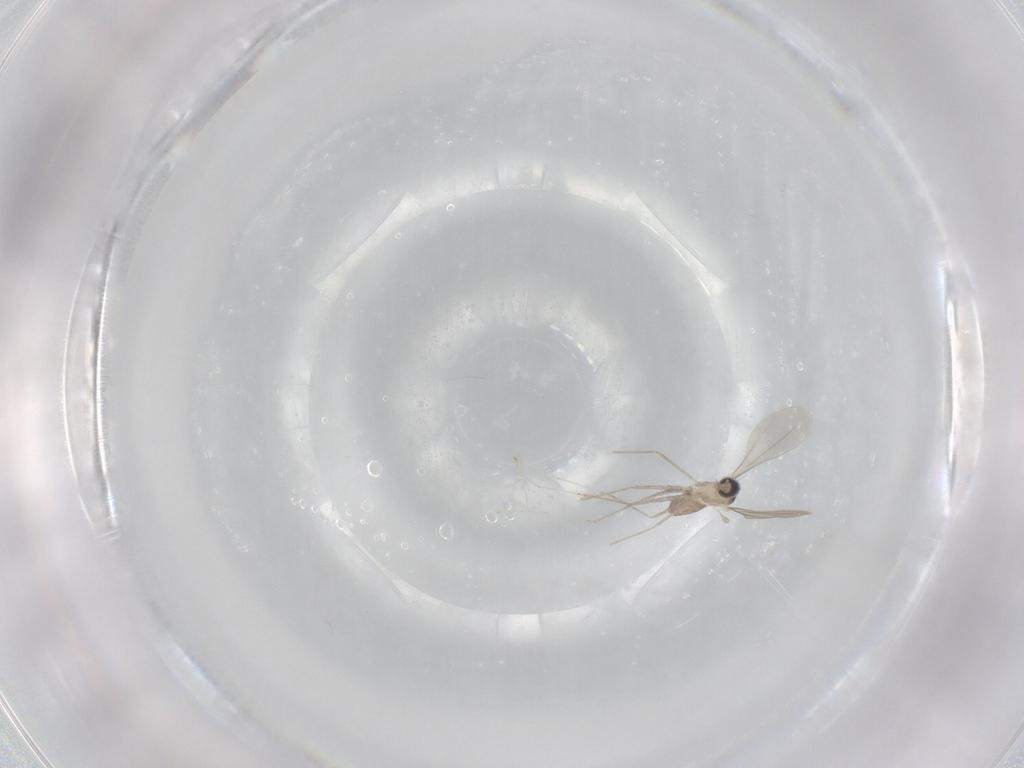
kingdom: Animalia
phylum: Arthropoda
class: Insecta
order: Diptera
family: Cecidomyiidae
